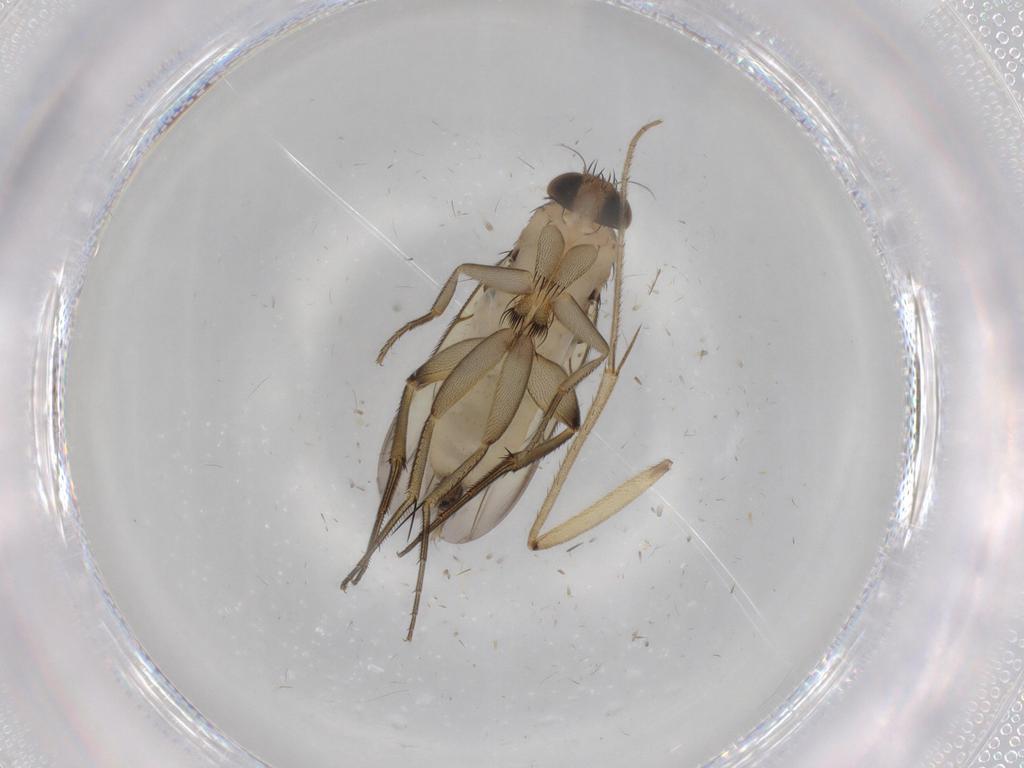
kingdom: Animalia
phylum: Arthropoda
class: Insecta
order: Diptera
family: Phoridae
